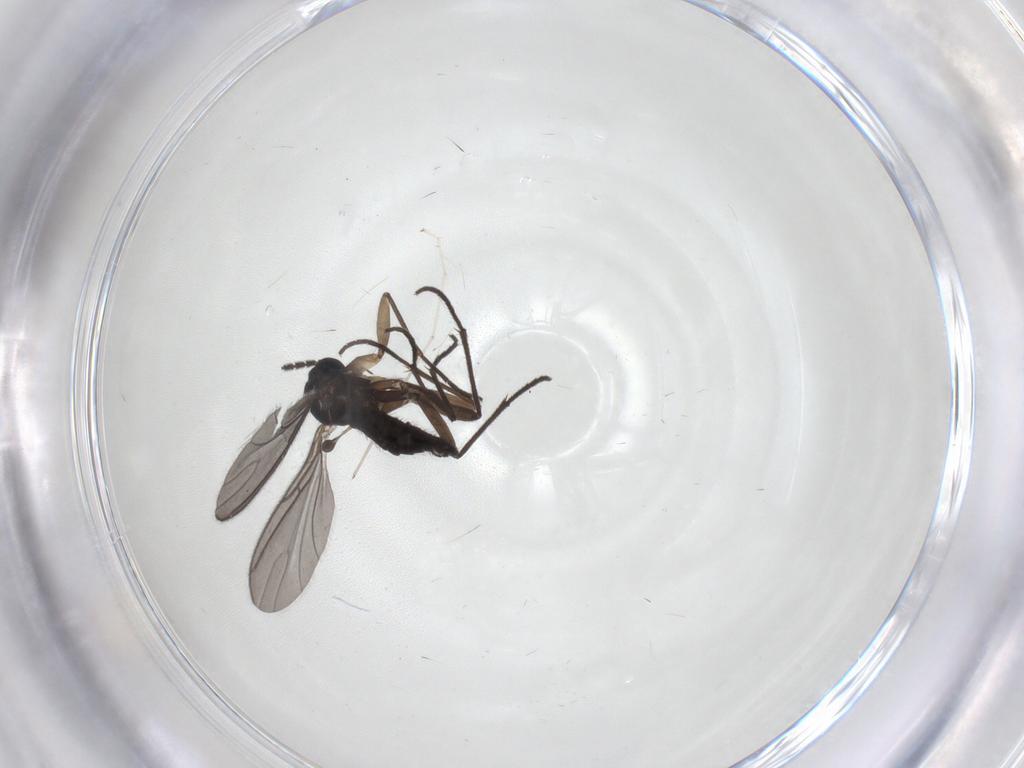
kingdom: Animalia
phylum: Arthropoda
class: Insecta
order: Diptera
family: Sciaridae
